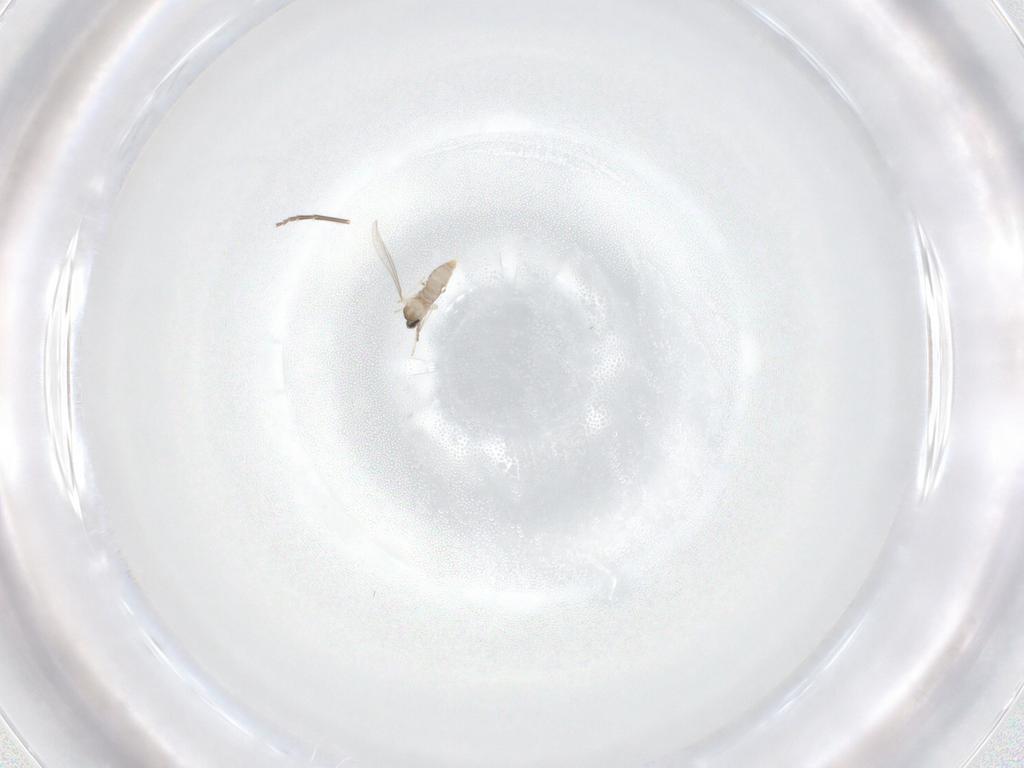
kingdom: Animalia
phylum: Arthropoda
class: Insecta
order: Diptera
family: Cecidomyiidae
